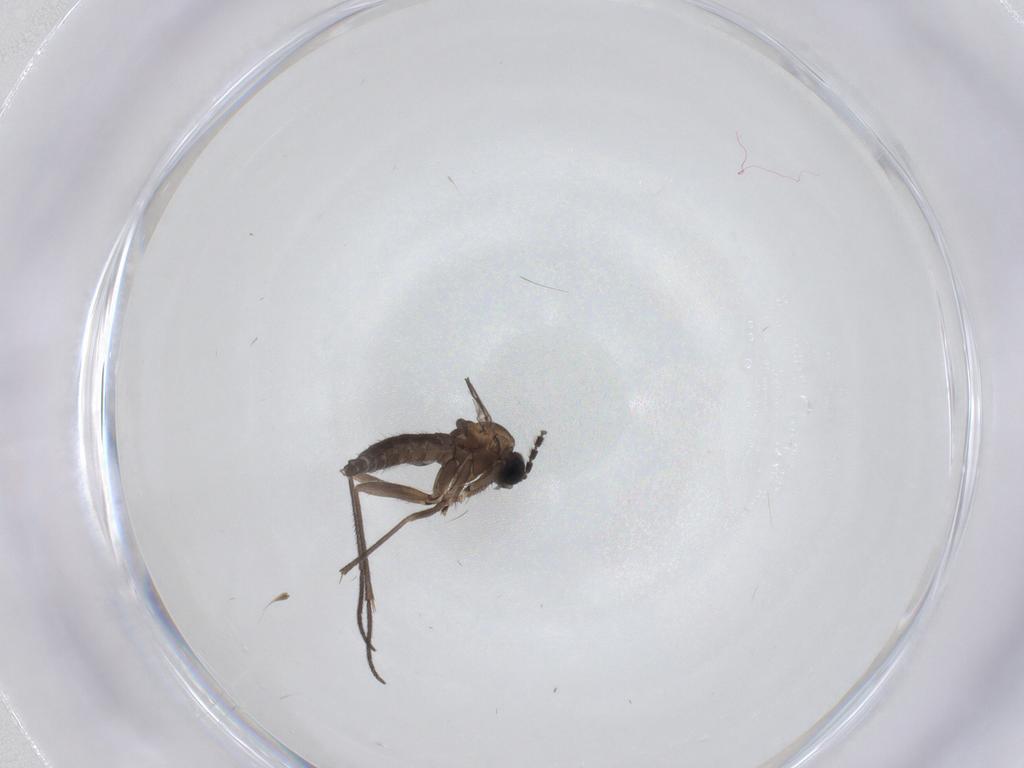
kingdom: Animalia
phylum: Arthropoda
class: Insecta
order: Diptera
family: Sciaridae
